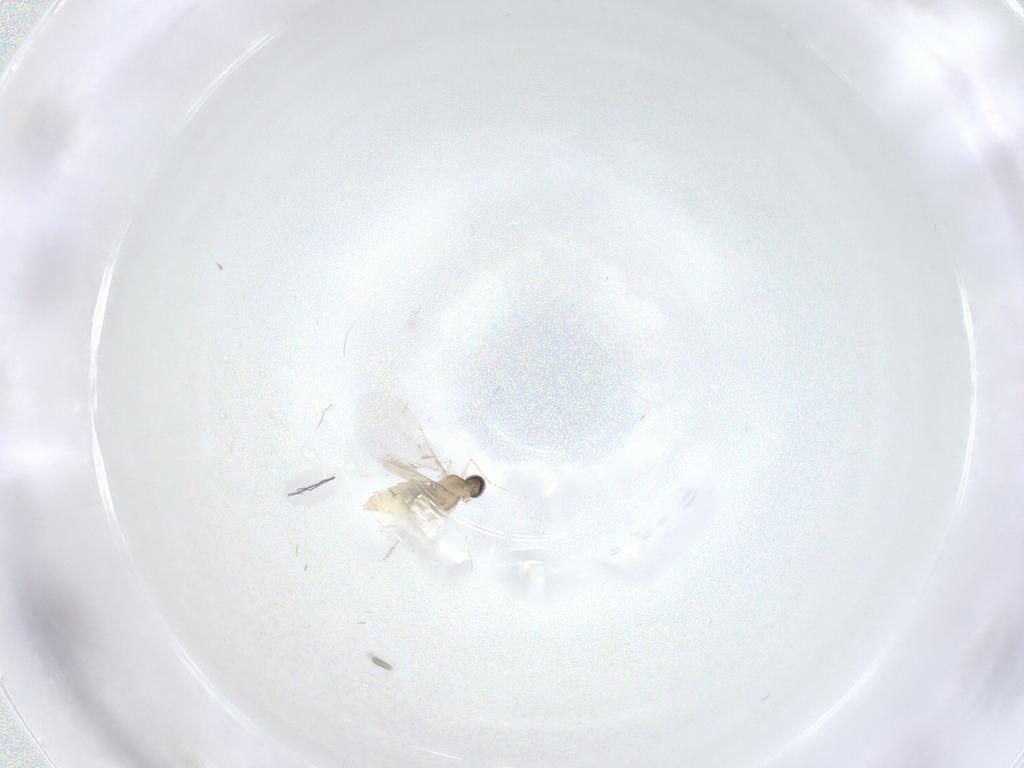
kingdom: Animalia
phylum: Arthropoda
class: Insecta
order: Diptera
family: Cecidomyiidae
